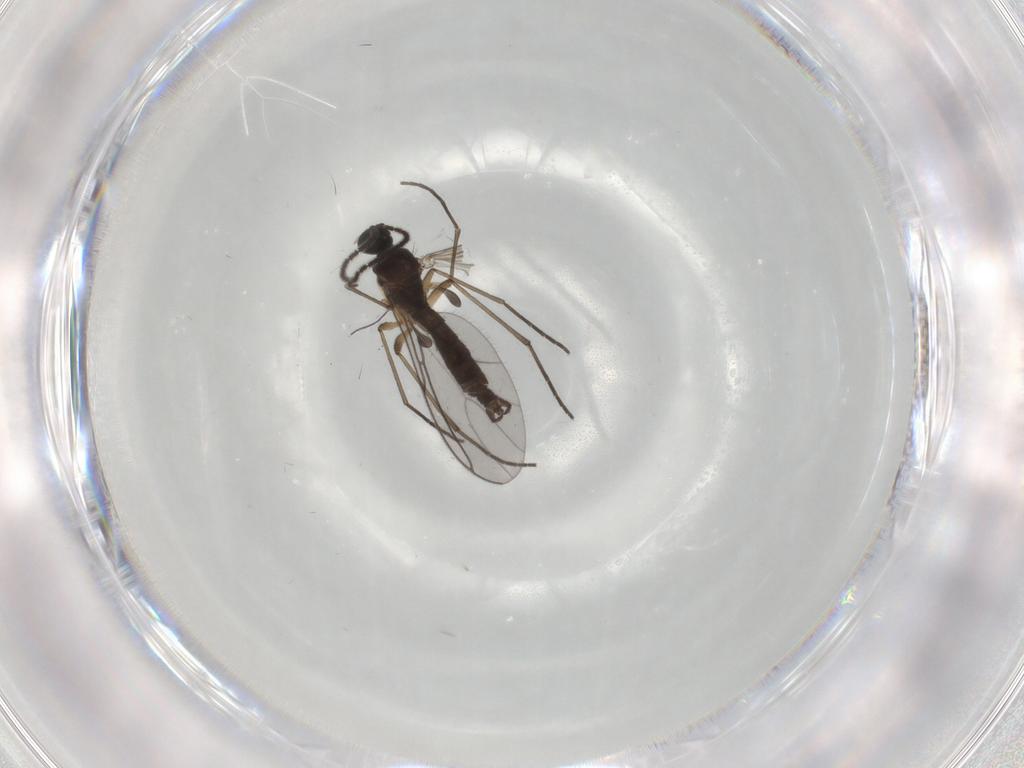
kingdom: Animalia
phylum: Arthropoda
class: Insecta
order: Diptera
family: Sciaridae
